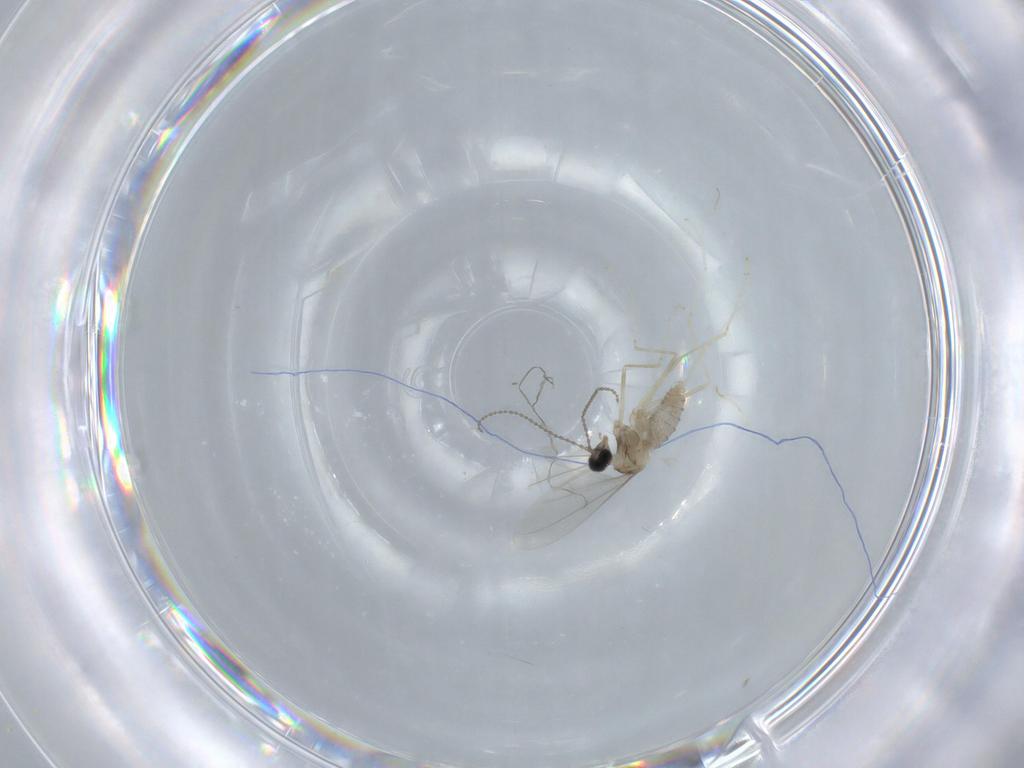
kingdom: Animalia
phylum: Arthropoda
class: Insecta
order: Diptera
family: Cecidomyiidae
